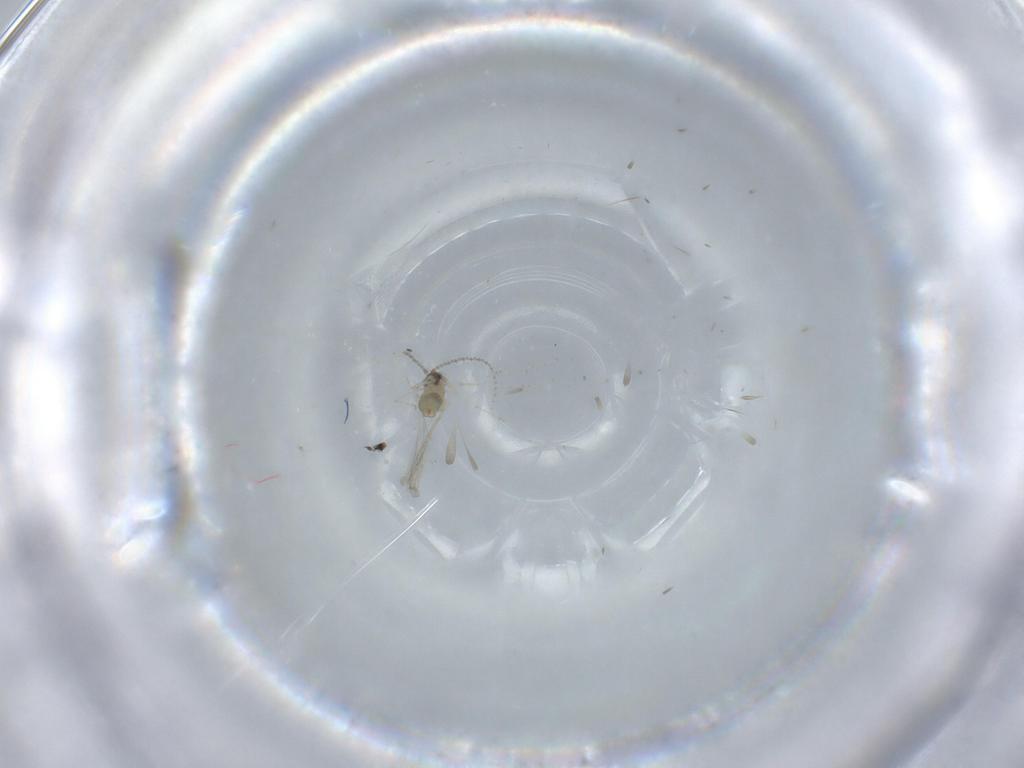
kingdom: Animalia
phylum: Arthropoda
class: Insecta
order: Diptera
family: Cecidomyiidae
